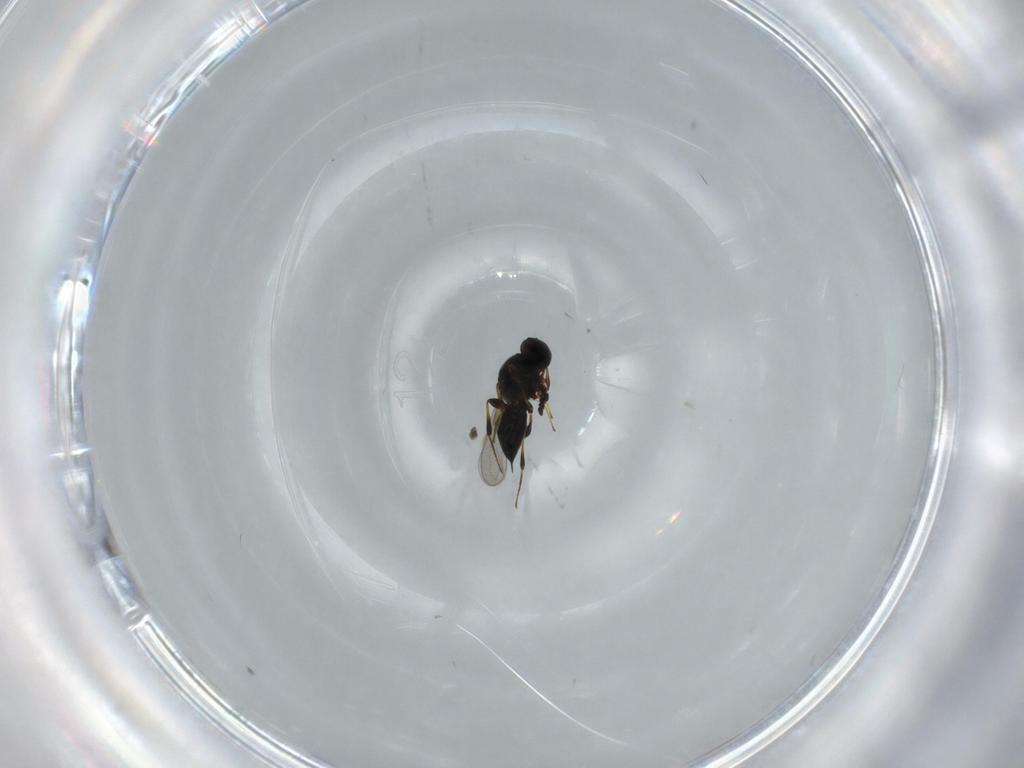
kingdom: Animalia
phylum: Arthropoda
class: Insecta
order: Hymenoptera
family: Platygastridae
